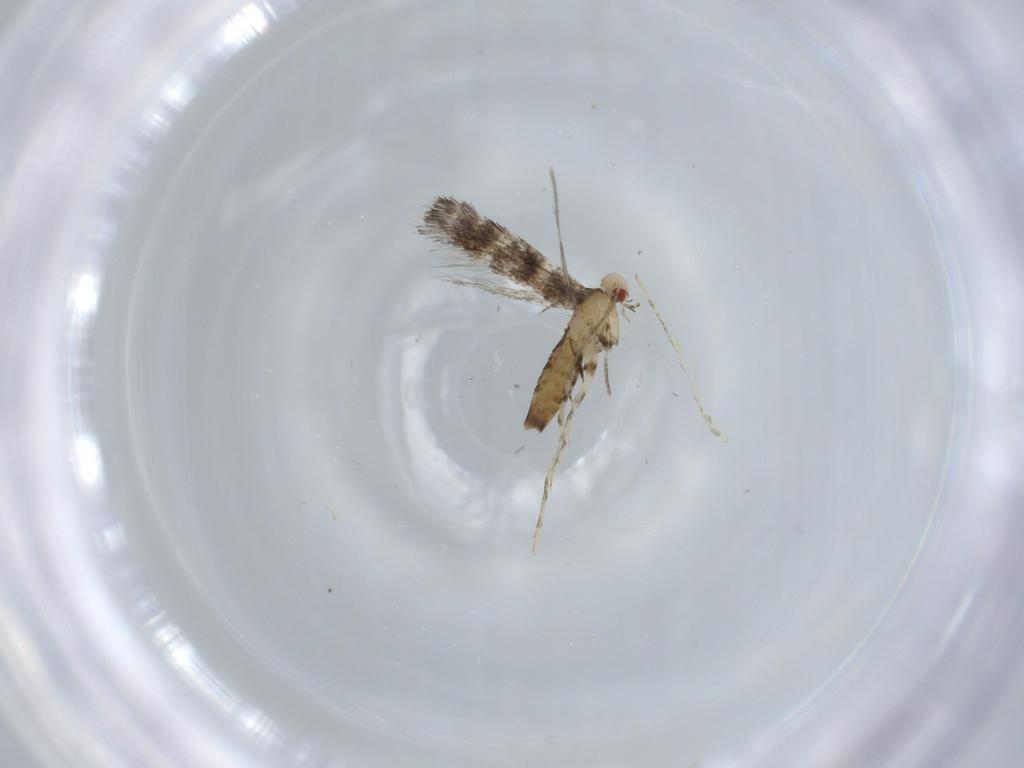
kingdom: Animalia
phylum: Arthropoda
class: Insecta
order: Lepidoptera
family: Gracillariidae
